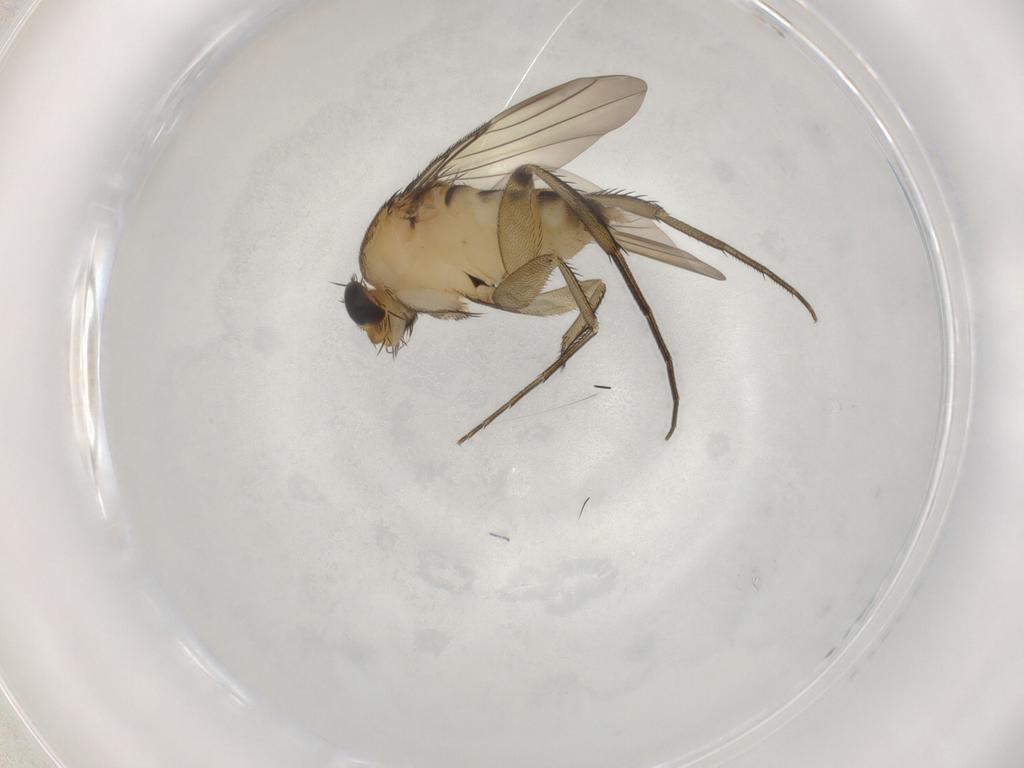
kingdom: Animalia
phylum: Arthropoda
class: Insecta
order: Diptera
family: Phoridae
